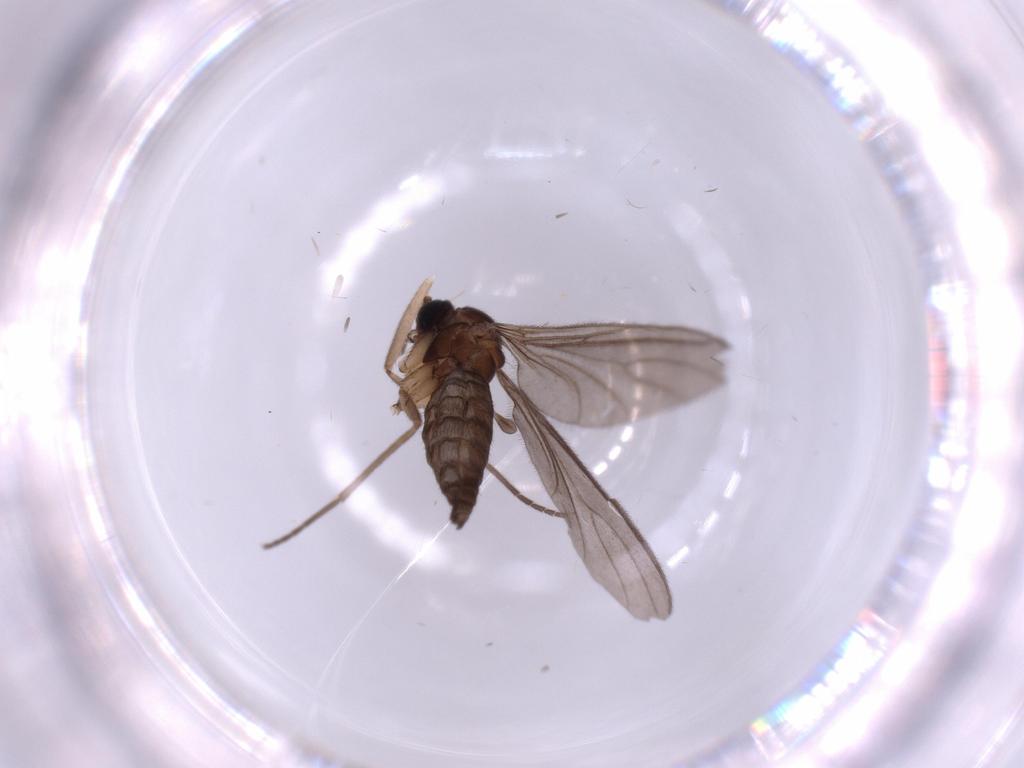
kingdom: Animalia
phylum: Arthropoda
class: Insecta
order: Diptera
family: Sciaridae
